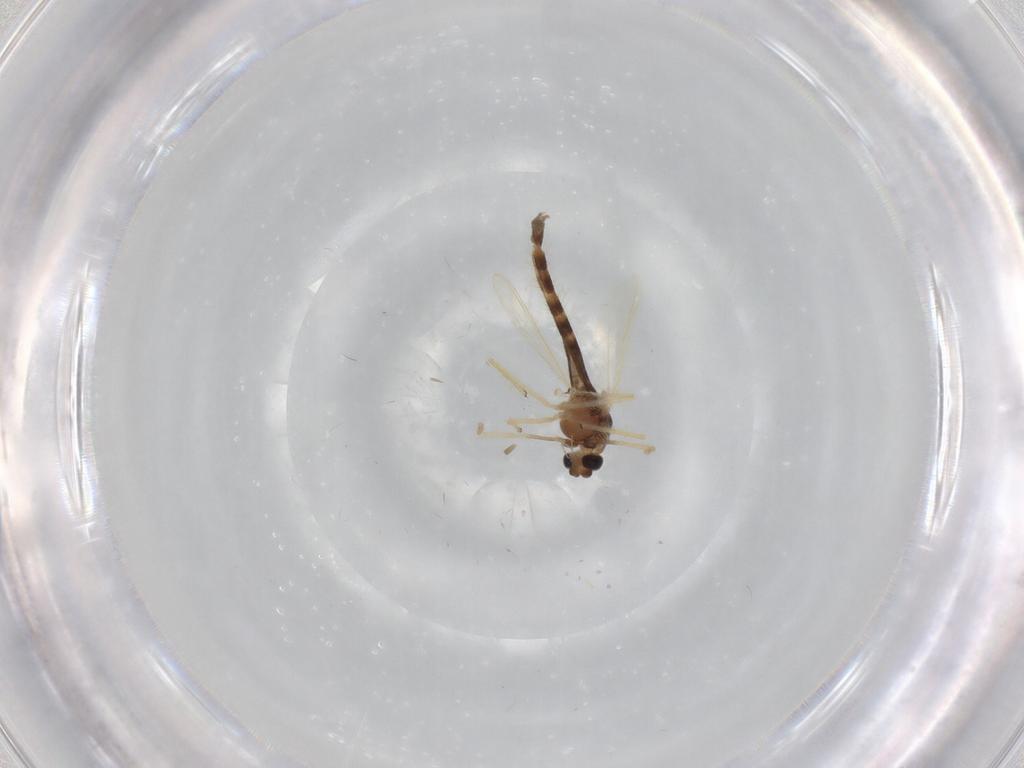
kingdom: Animalia
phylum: Arthropoda
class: Insecta
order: Diptera
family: Chironomidae
